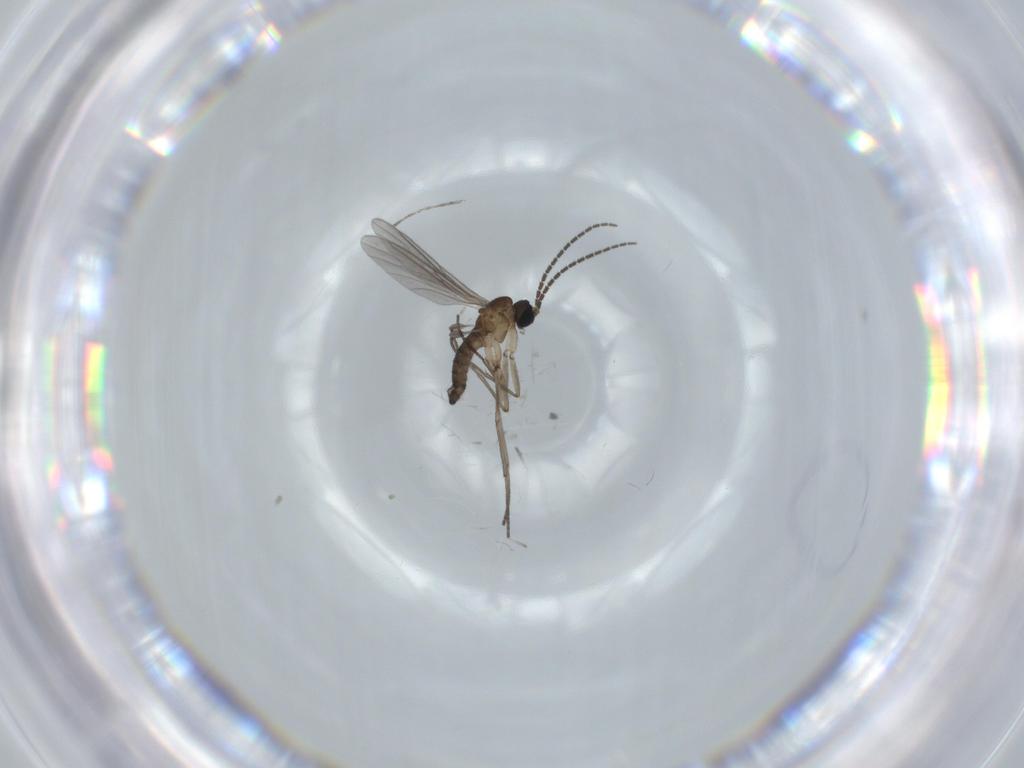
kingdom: Animalia
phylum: Arthropoda
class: Insecta
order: Diptera
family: Sciaridae
